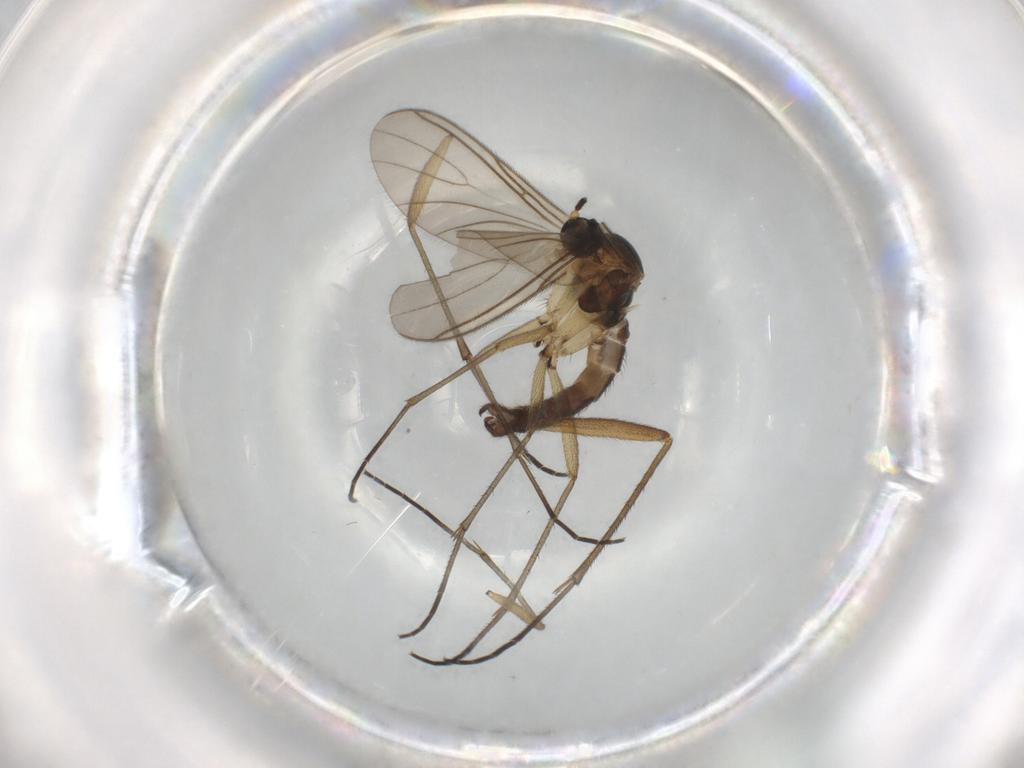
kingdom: Animalia
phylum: Arthropoda
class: Insecta
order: Diptera
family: Sciaridae
